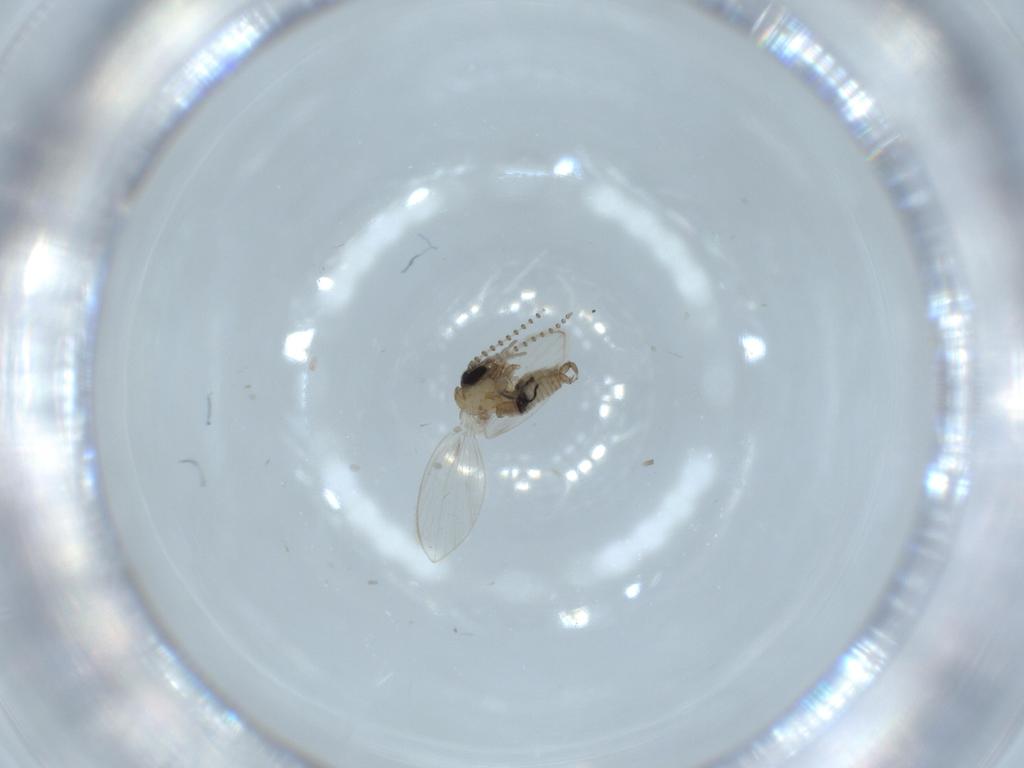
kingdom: Animalia
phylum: Arthropoda
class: Insecta
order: Diptera
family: Psychodidae
